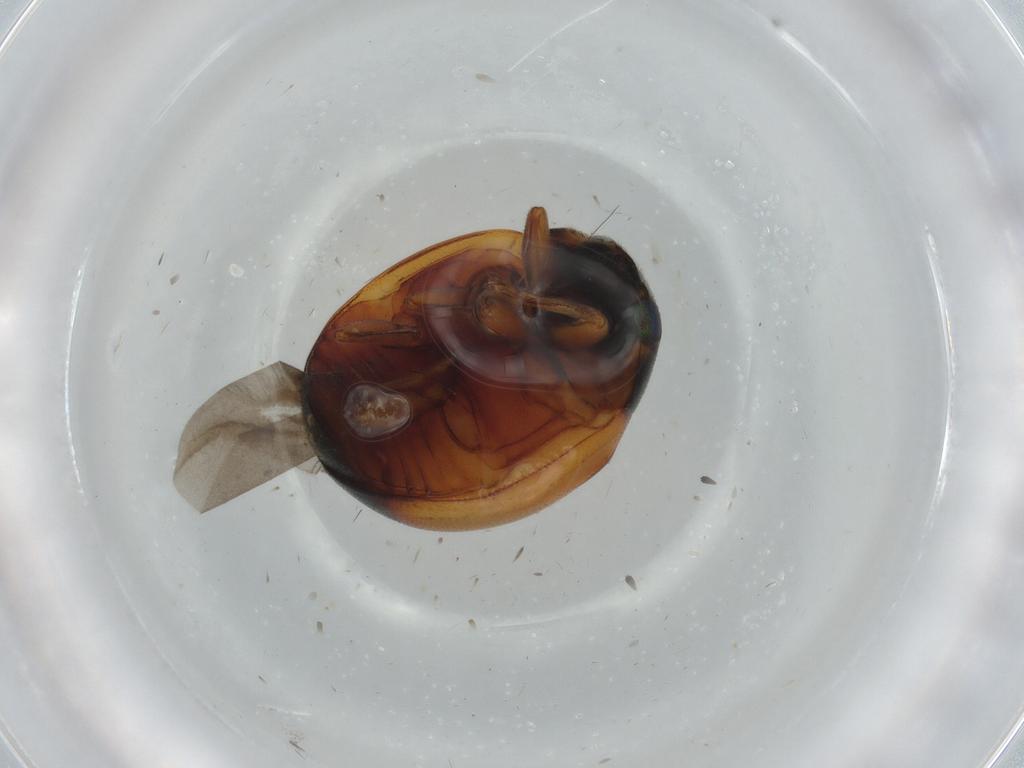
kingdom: Animalia
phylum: Arthropoda
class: Insecta
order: Coleoptera
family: Coccinellidae
